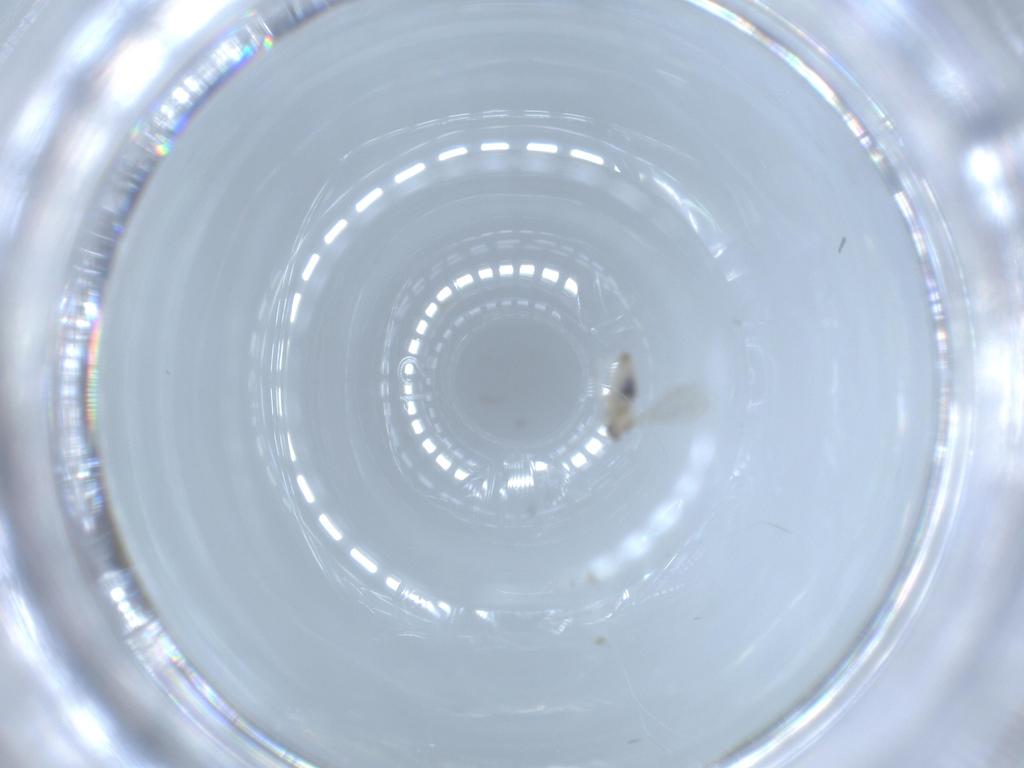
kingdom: Animalia
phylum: Arthropoda
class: Insecta
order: Diptera
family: Cecidomyiidae
